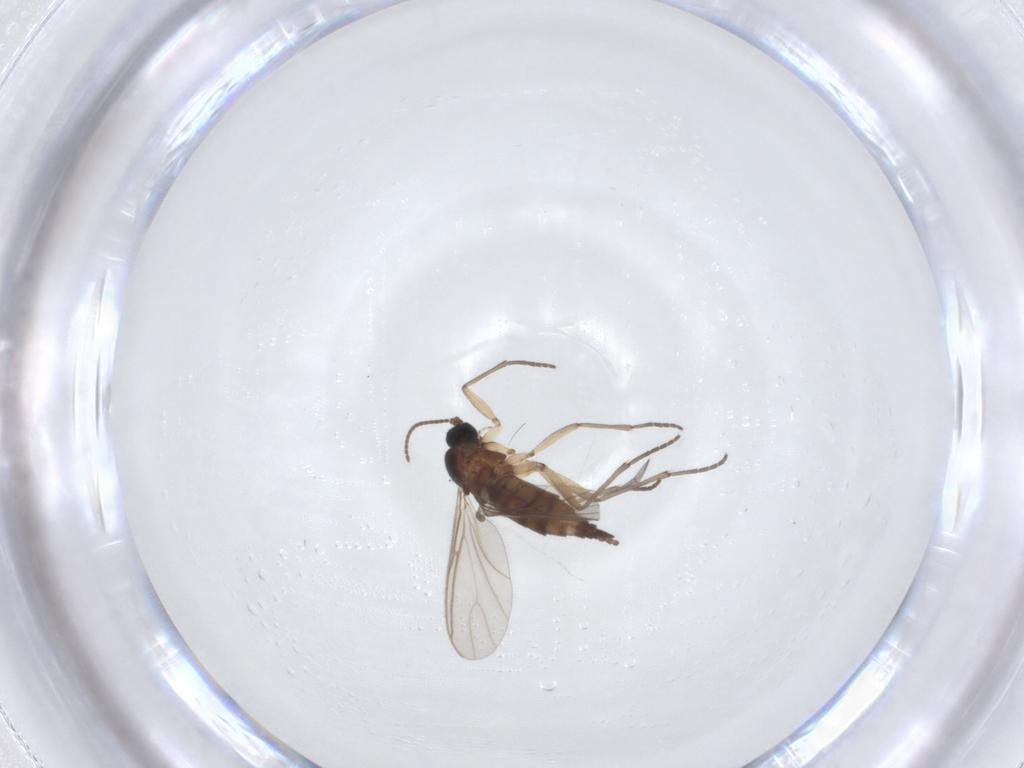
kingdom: Animalia
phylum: Arthropoda
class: Insecta
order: Diptera
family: Sciaridae
